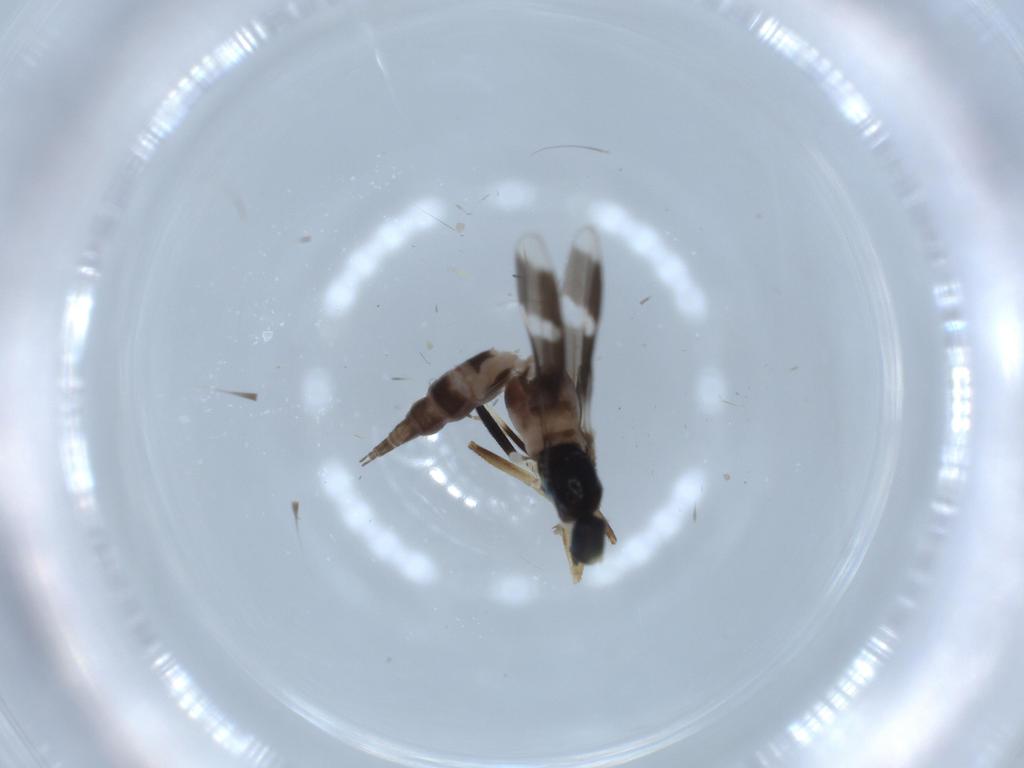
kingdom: Animalia
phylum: Arthropoda
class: Insecta
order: Diptera
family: Hybotidae
